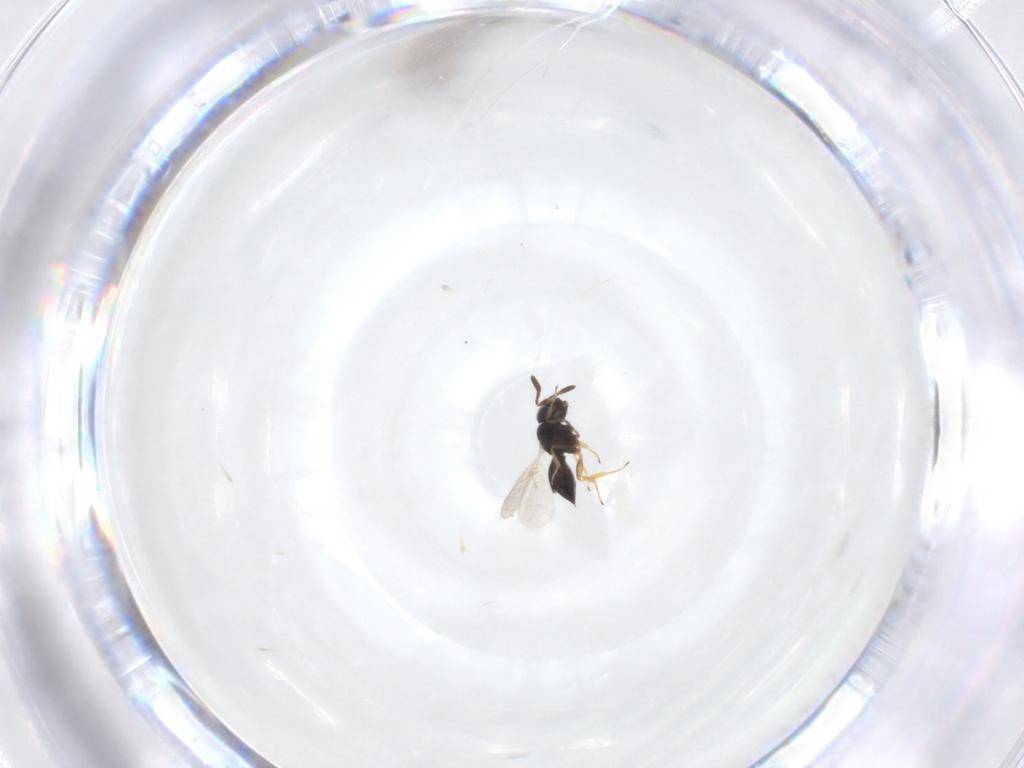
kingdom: Animalia
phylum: Arthropoda
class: Insecta
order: Hymenoptera
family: Scelionidae
